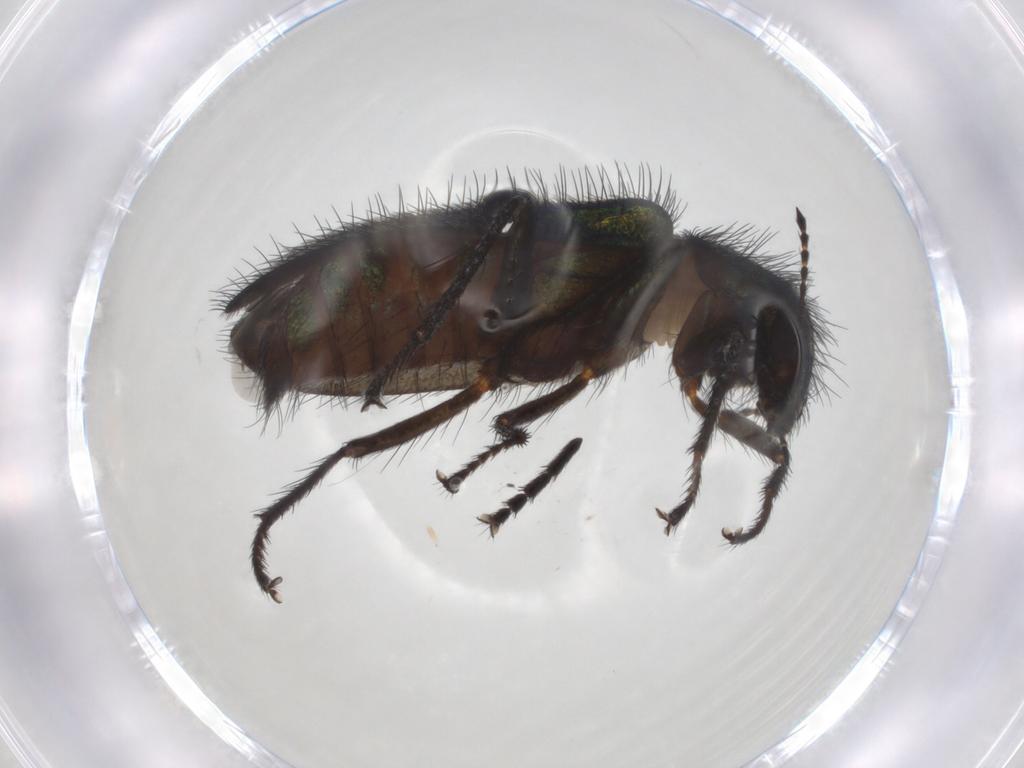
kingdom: Animalia
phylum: Arthropoda
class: Insecta
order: Coleoptera
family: Melyridae
